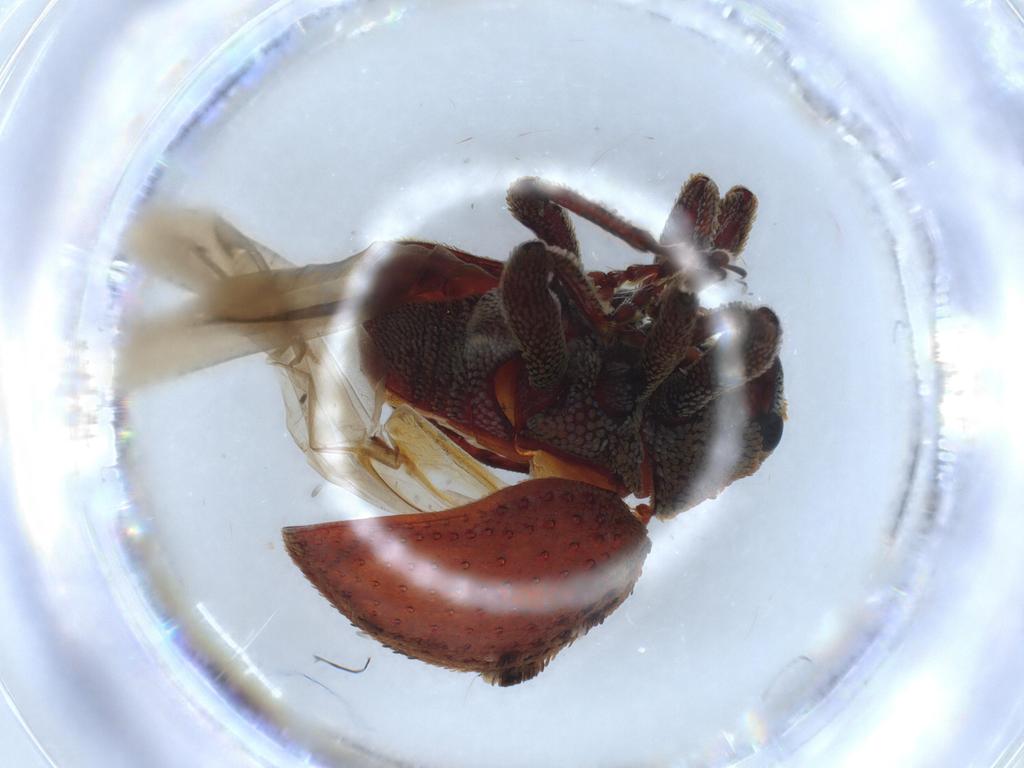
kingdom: Animalia
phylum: Arthropoda
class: Insecta
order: Coleoptera
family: Curculionidae
